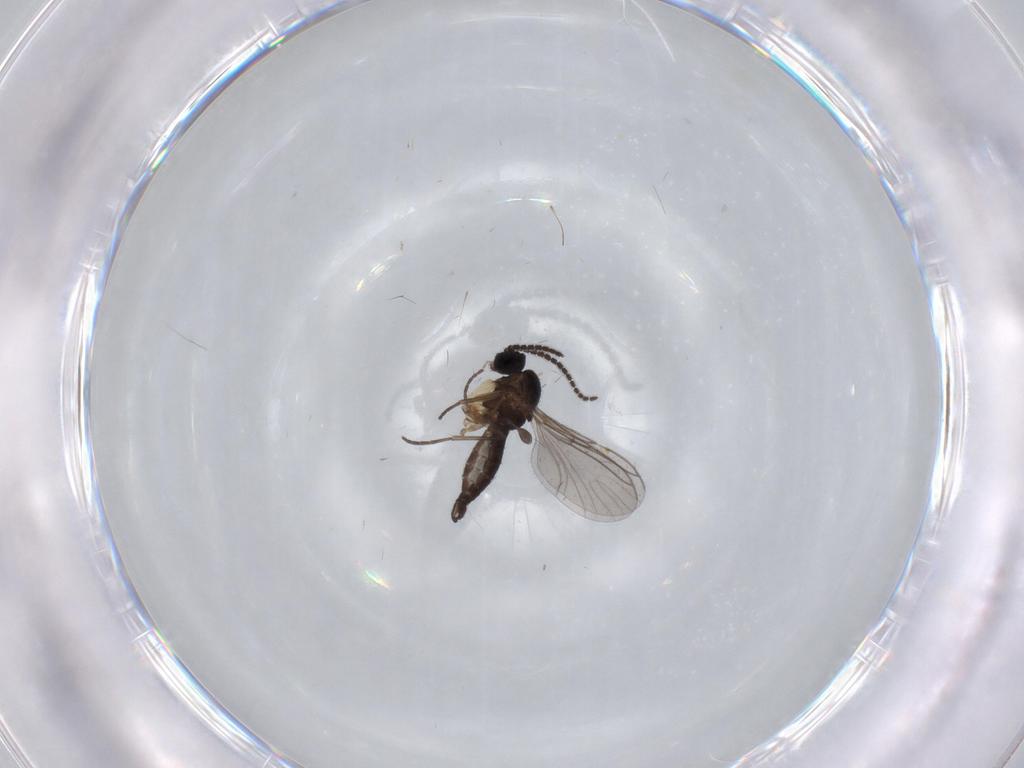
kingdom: Animalia
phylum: Arthropoda
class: Insecta
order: Diptera
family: Sciaridae
